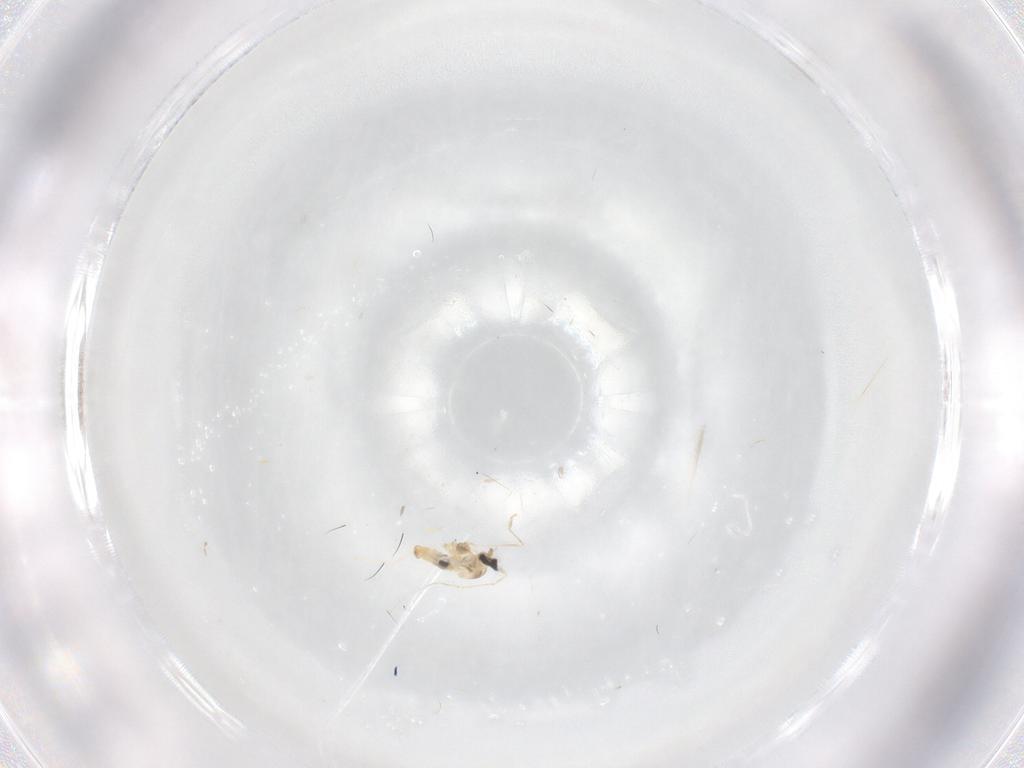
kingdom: Animalia
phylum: Arthropoda
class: Insecta
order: Diptera
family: Cecidomyiidae
